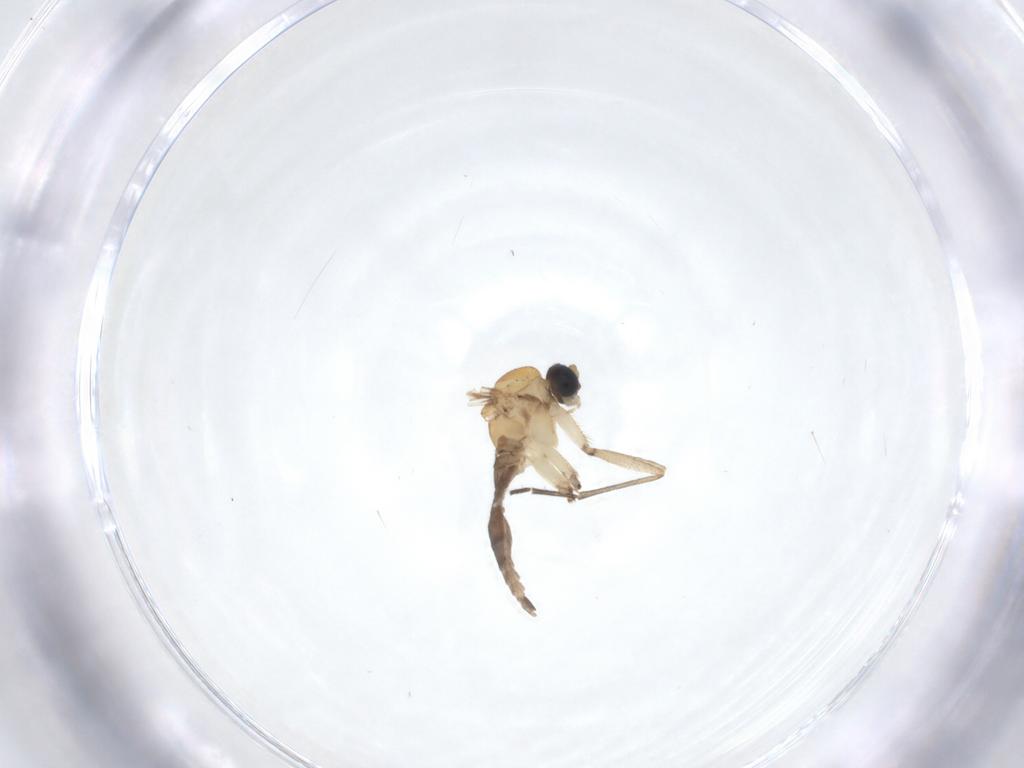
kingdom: Animalia
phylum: Arthropoda
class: Insecta
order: Diptera
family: Sciaridae
